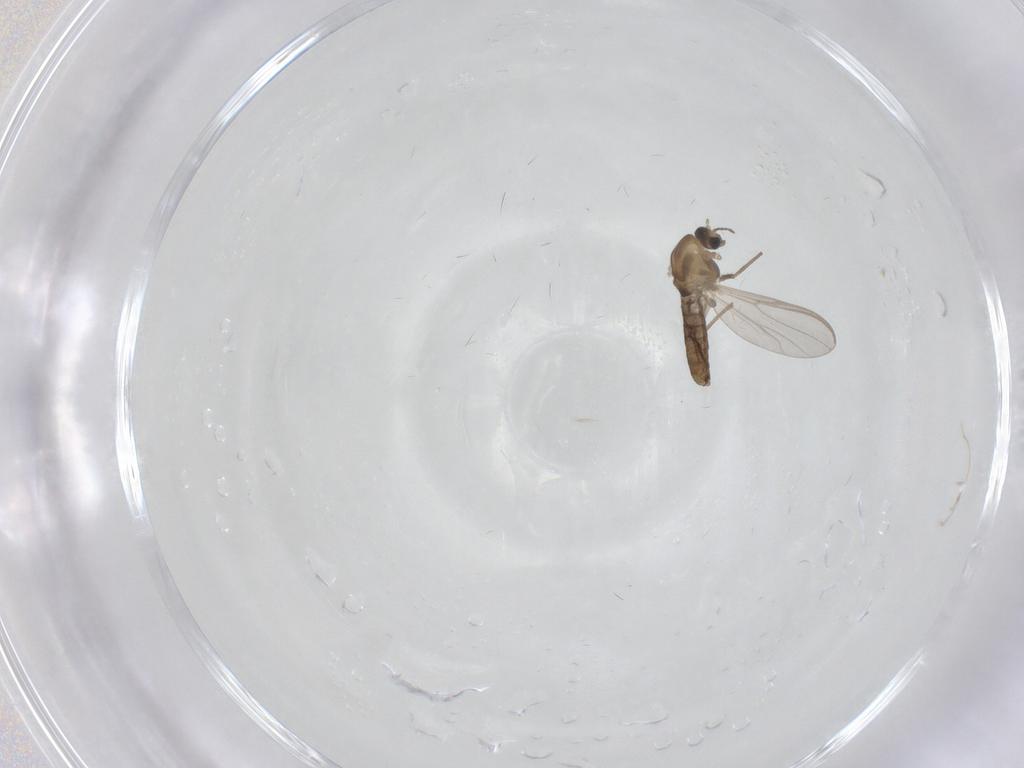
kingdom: Animalia
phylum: Arthropoda
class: Insecta
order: Diptera
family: Chironomidae
